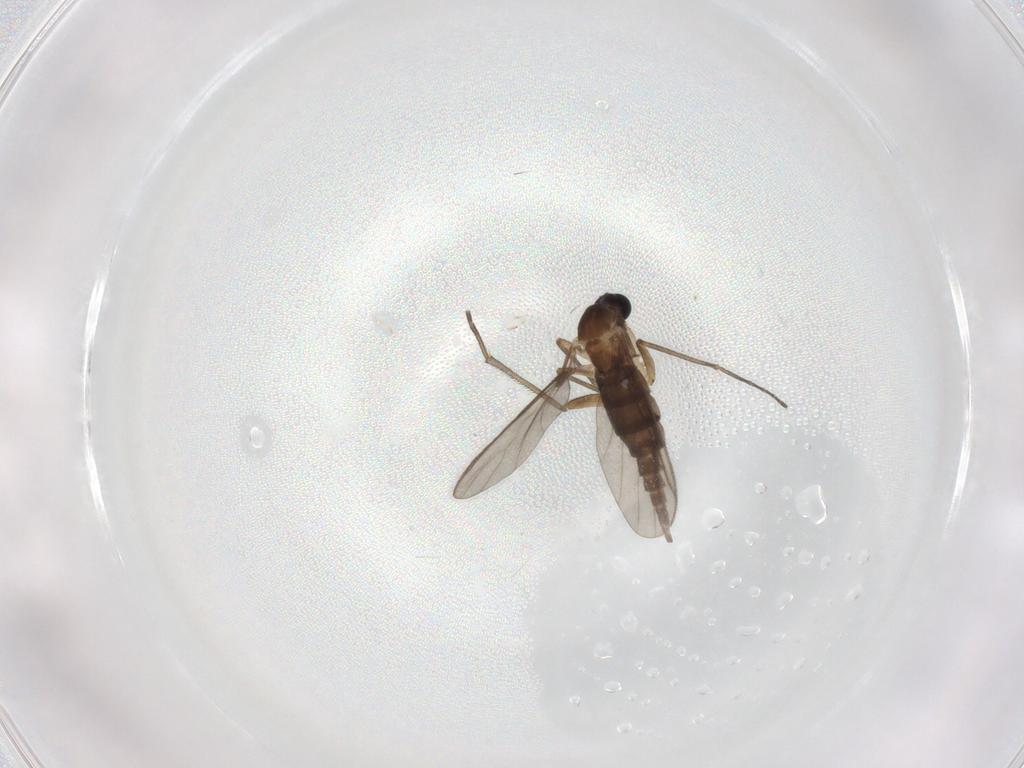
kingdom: Animalia
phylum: Arthropoda
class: Insecta
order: Diptera
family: Sciaridae
